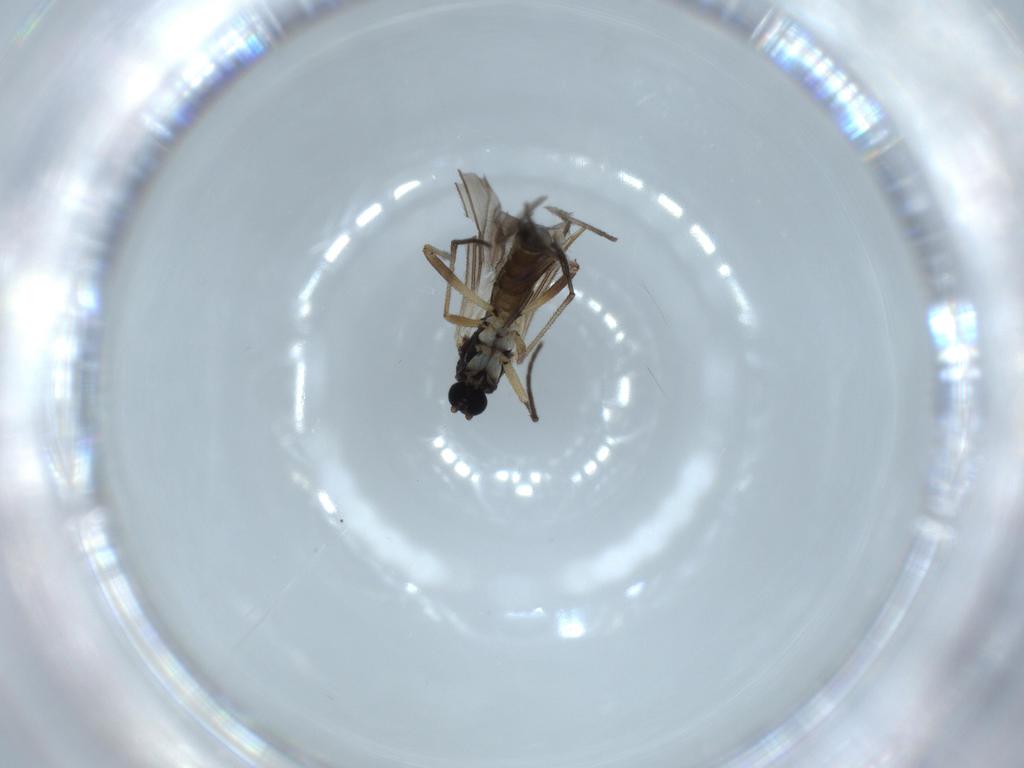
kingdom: Animalia
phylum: Arthropoda
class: Insecta
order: Diptera
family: Sciaridae
